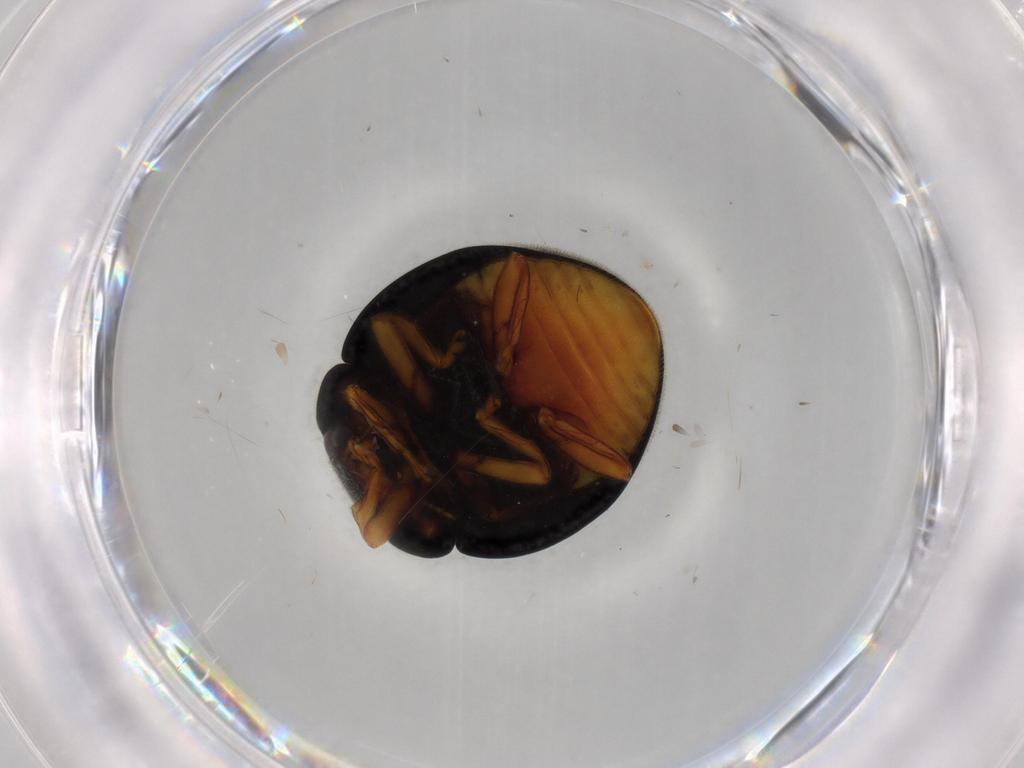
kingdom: Animalia
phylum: Arthropoda
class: Insecta
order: Coleoptera
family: Coccinellidae
